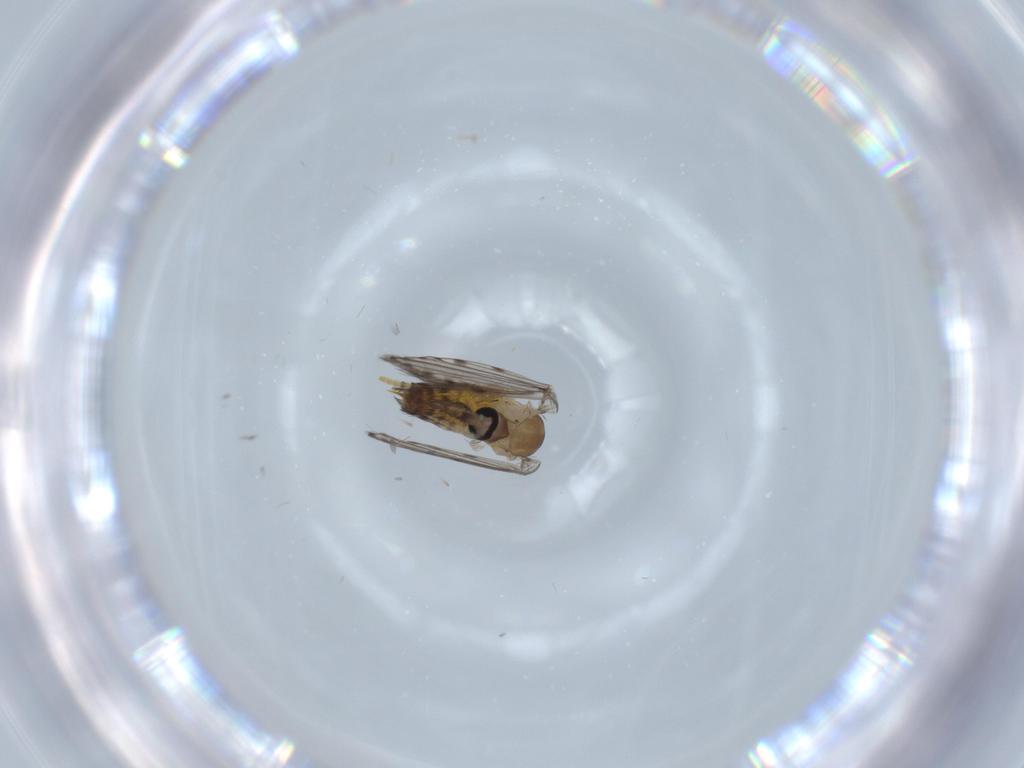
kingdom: Animalia
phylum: Arthropoda
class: Insecta
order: Diptera
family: Psychodidae
